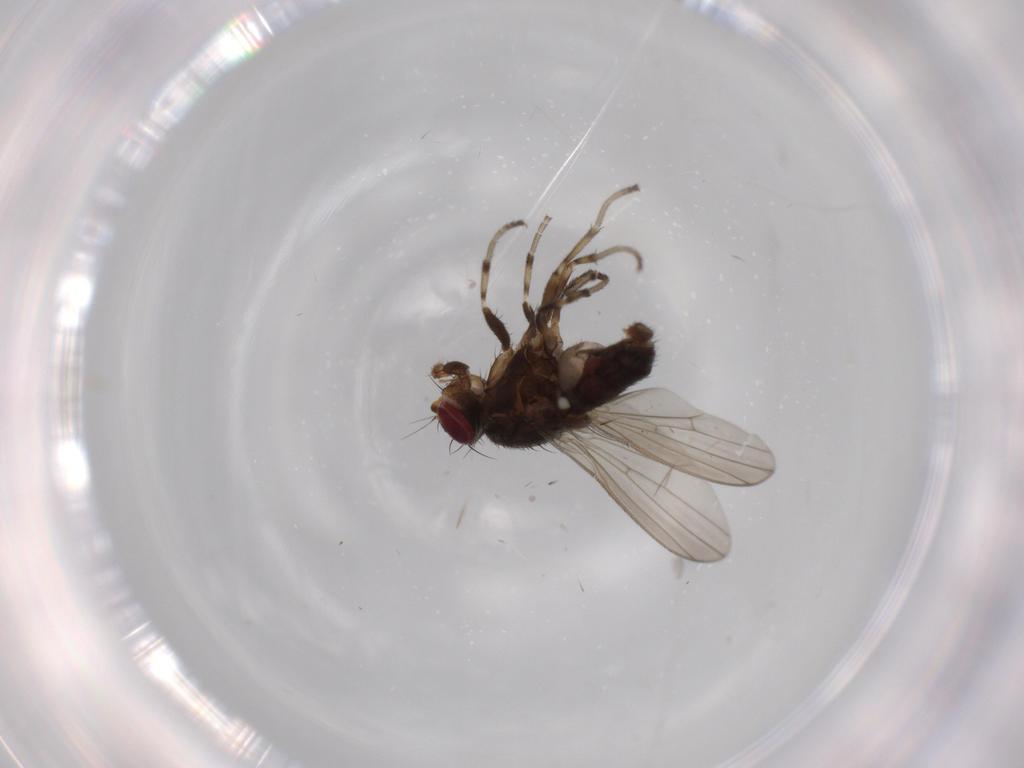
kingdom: Animalia
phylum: Arthropoda
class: Insecta
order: Diptera
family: Heleomyzidae
